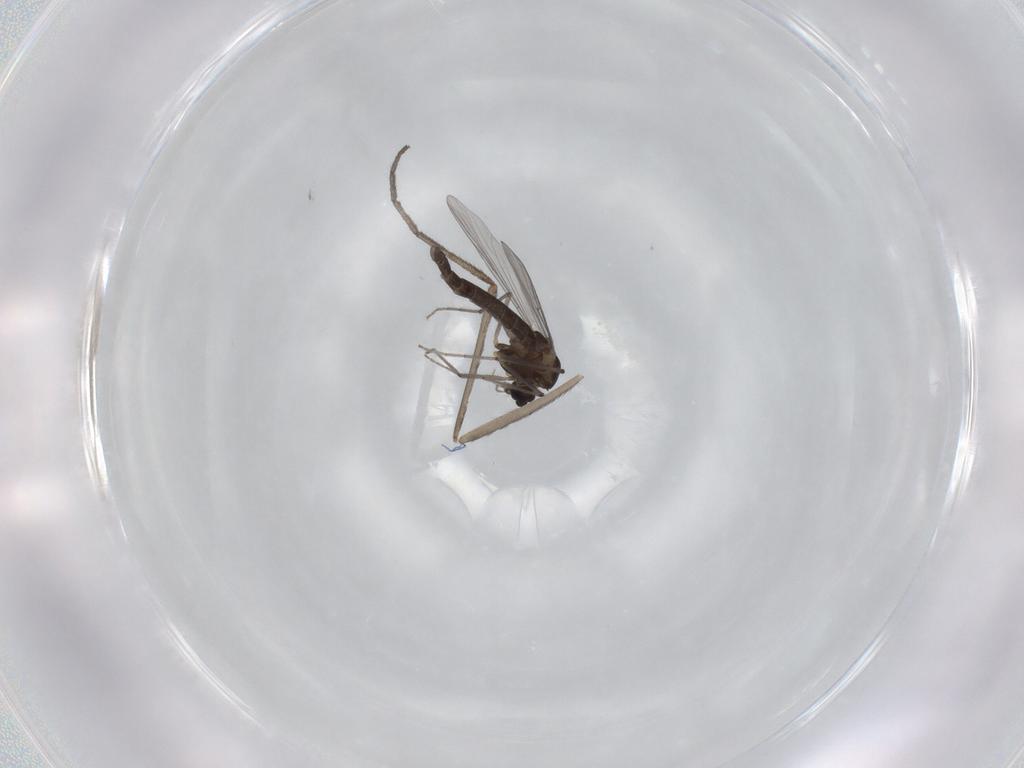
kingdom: Animalia
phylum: Arthropoda
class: Insecta
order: Diptera
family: Chironomidae
